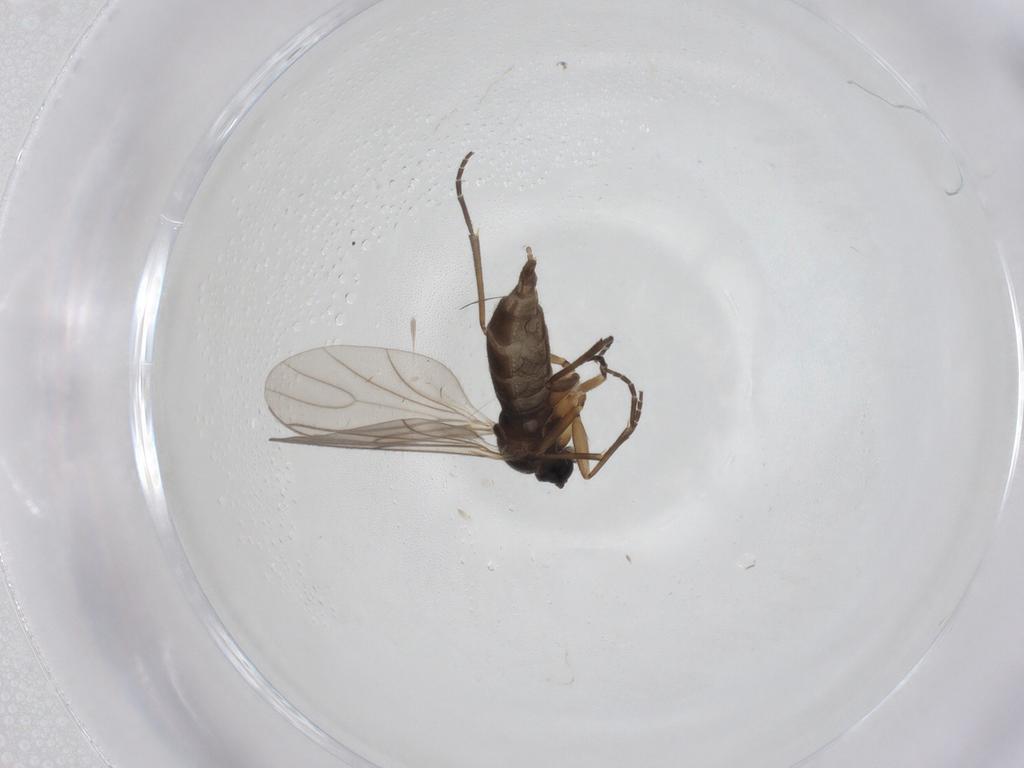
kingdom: Animalia
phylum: Arthropoda
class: Insecta
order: Diptera
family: Sciaridae
